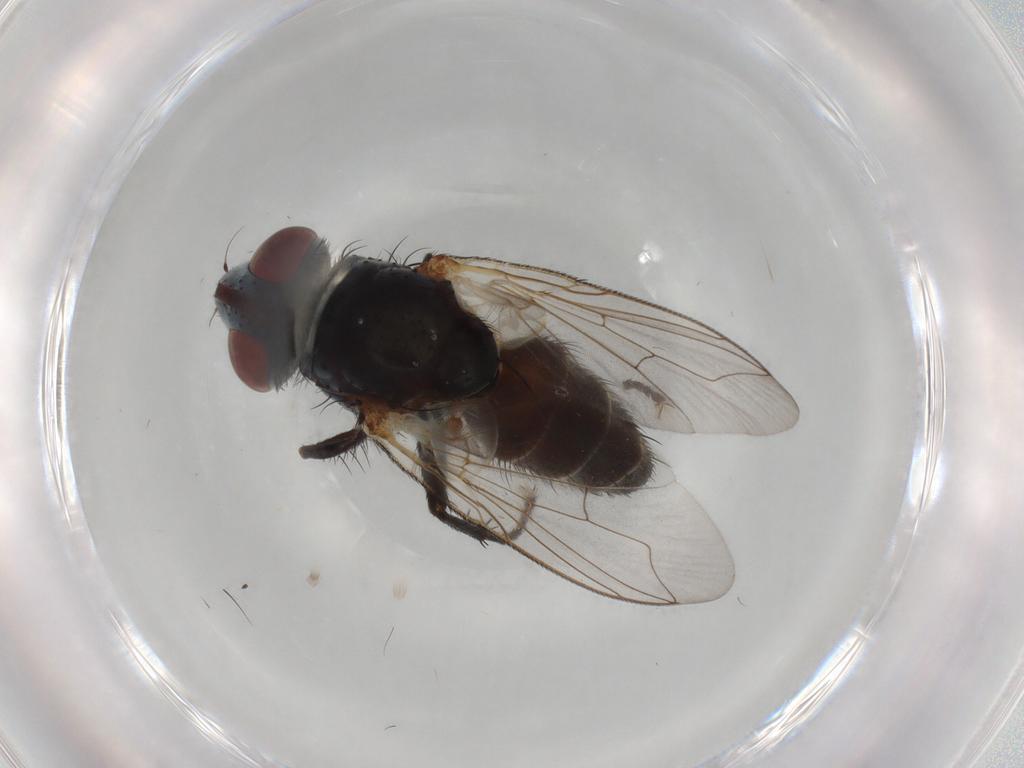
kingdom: Animalia
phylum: Arthropoda
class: Insecta
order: Diptera
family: Sarcophagidae
